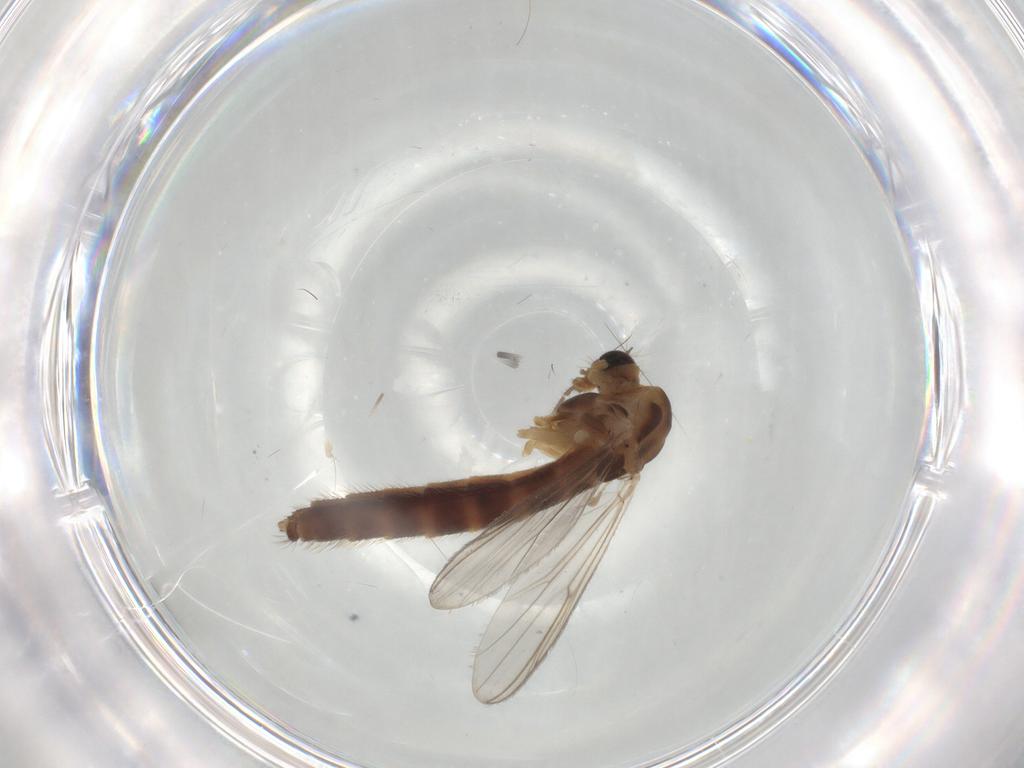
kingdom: Animalia
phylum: Arthropoda
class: Insecta
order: Diptera
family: Chironomidae
